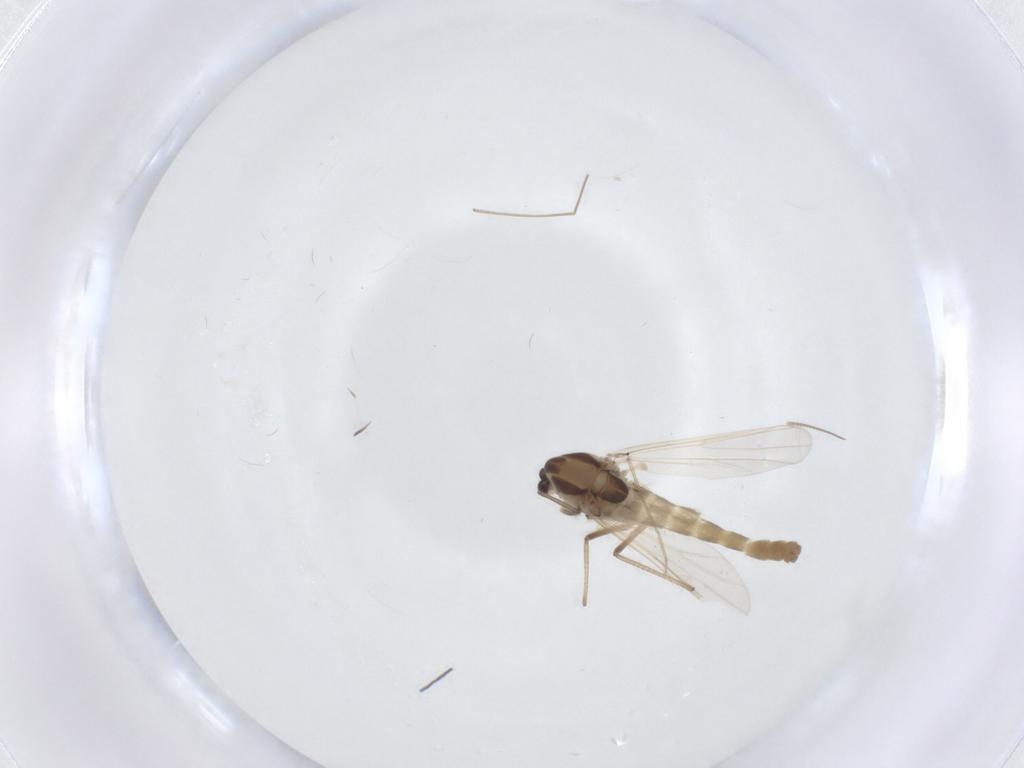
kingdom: Animalia
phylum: Arthropoda
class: Insecta
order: Diptera
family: Chironomidae
